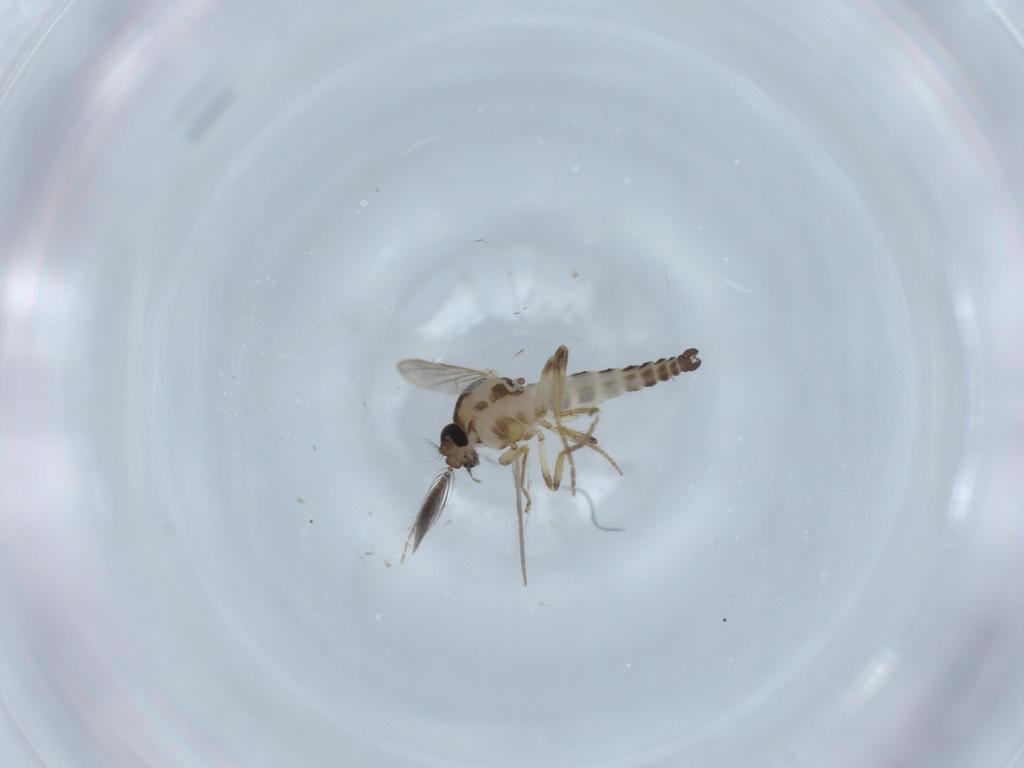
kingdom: Animalia
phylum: Arthropoda
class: Insecta
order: Diptera
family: Ceratopogonidae
